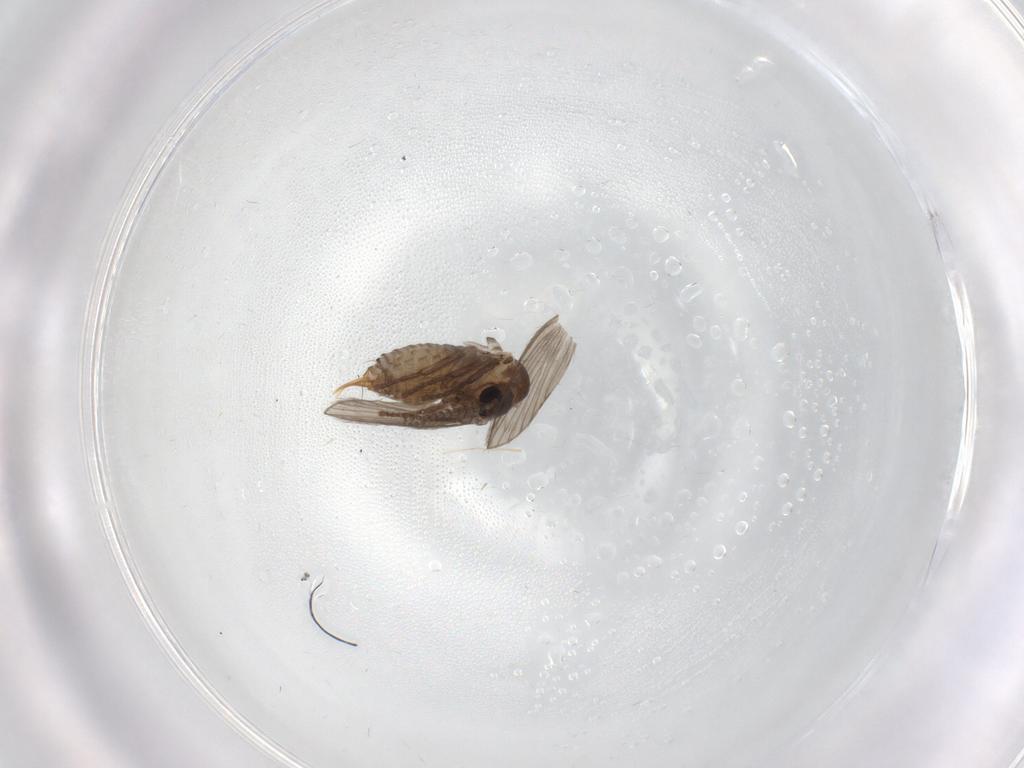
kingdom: Animalia
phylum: Arthropoda
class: Insecta
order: Diptera
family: Psychodidae
